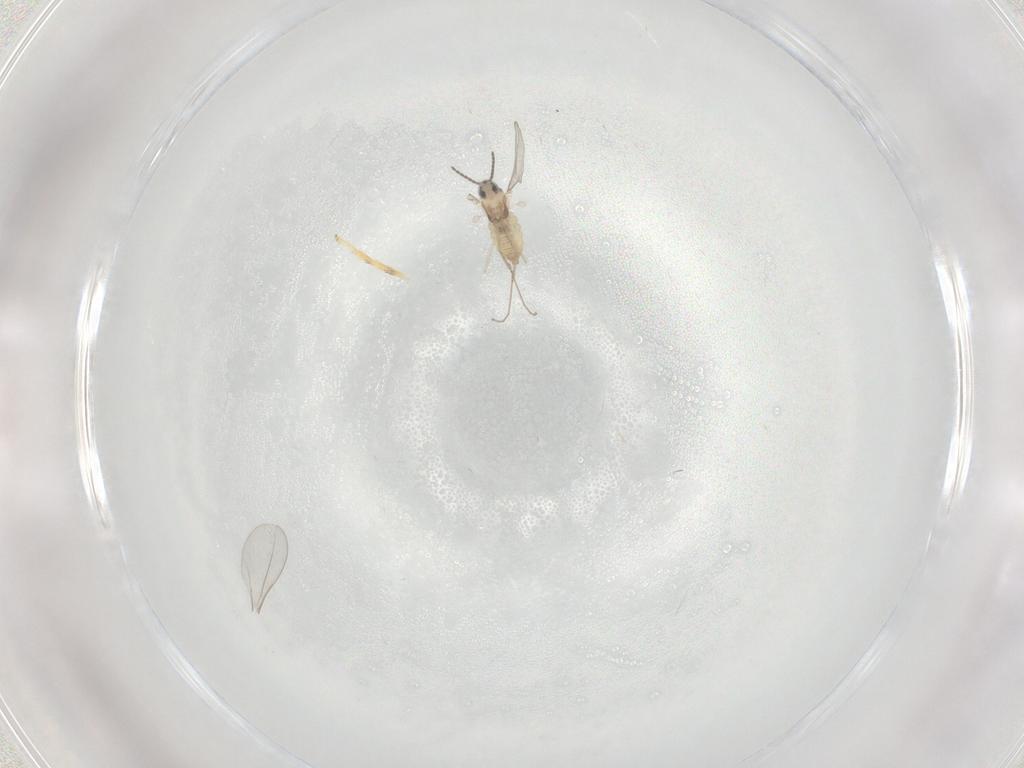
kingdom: Animalia
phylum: Arthropoda
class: Insecta
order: Diptera
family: Cecidomyiidae
